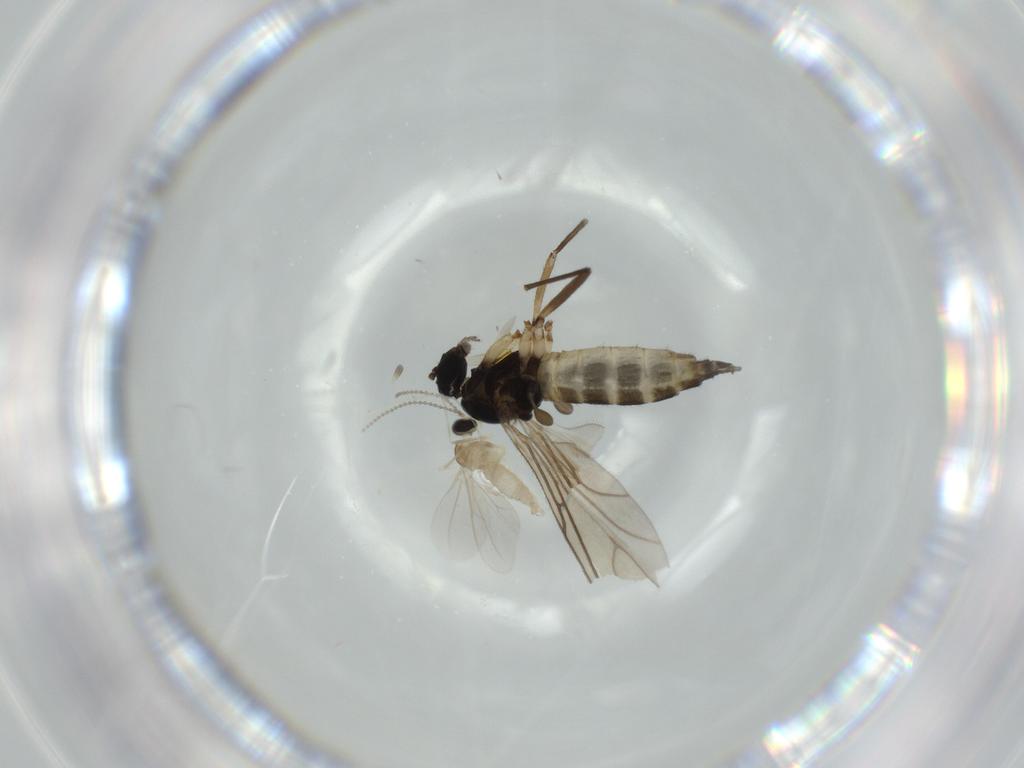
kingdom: Animalia
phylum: Arthropoda
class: Insecta
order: Diptera
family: Sciaridae
